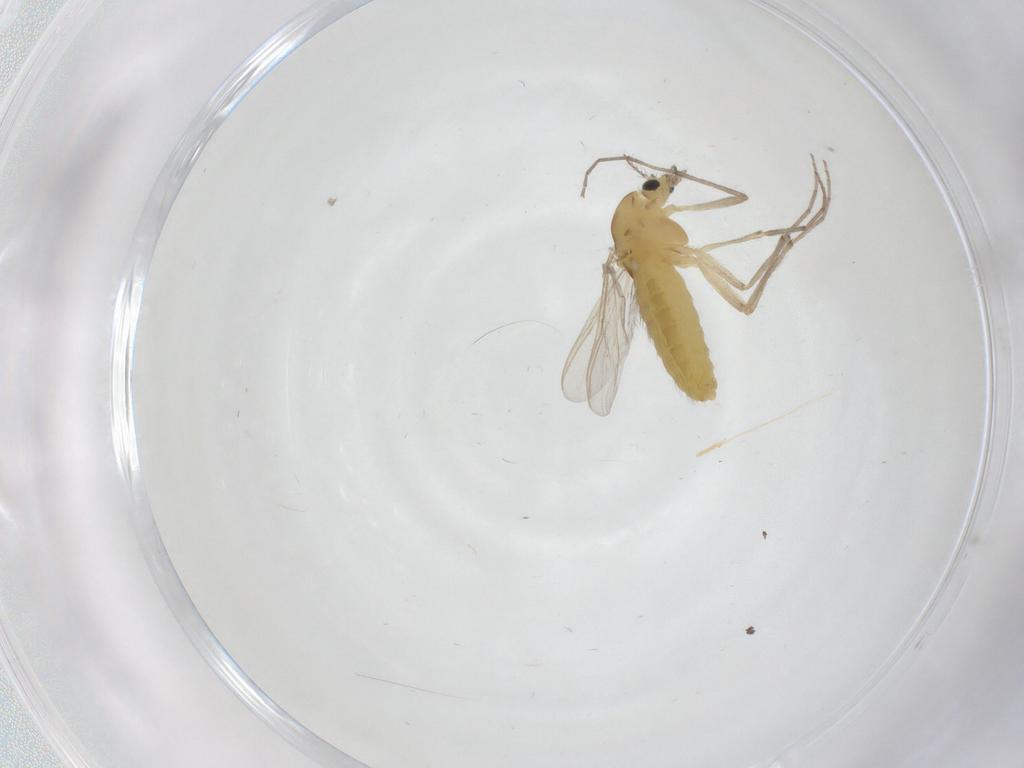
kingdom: Animalia
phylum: Arthropoda
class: Insecta
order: Diptera
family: Chironomidae
